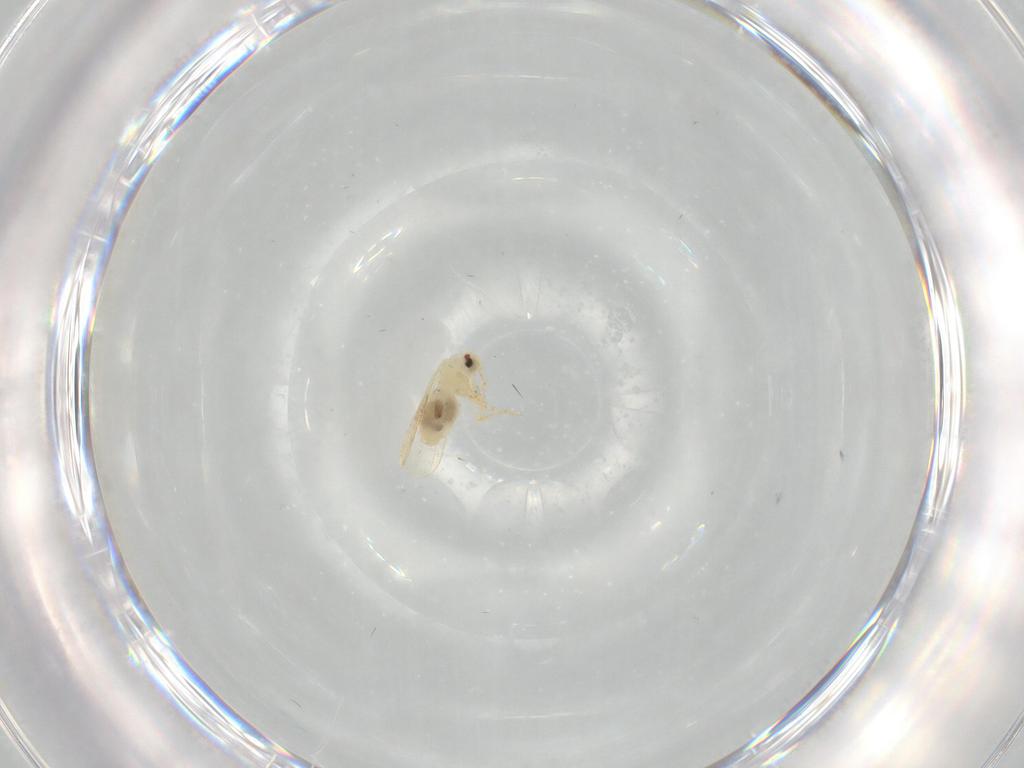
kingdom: Animalia
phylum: Arthropoda
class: Insecta
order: Hemiptera
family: Aleyrodidae
